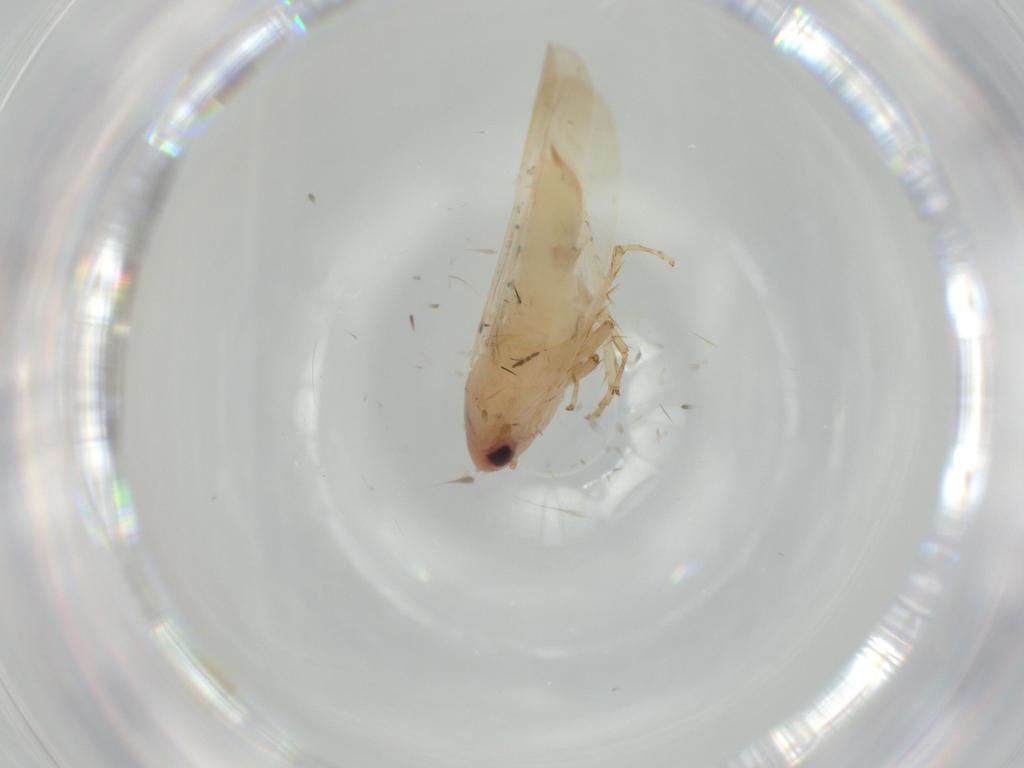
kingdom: Animalia
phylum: Arthropoda
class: Insecta
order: Hemiptera
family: Cicadellidae
